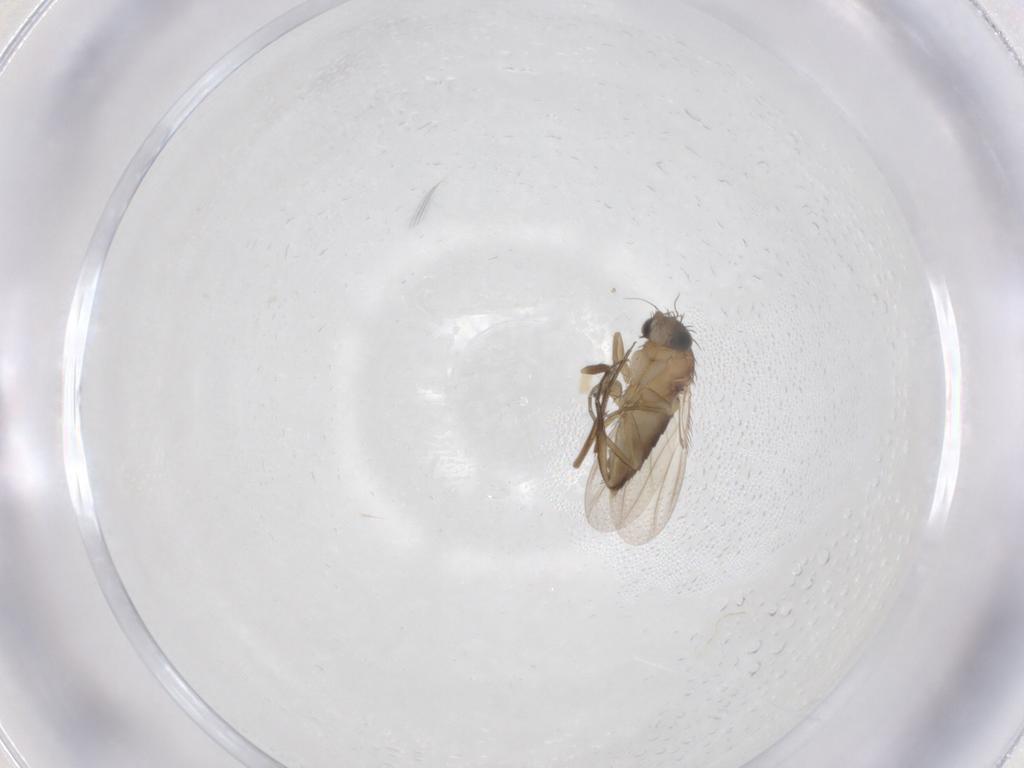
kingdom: Animalia
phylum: Arthropoda
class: Insecta
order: Diptera
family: Phoridae
